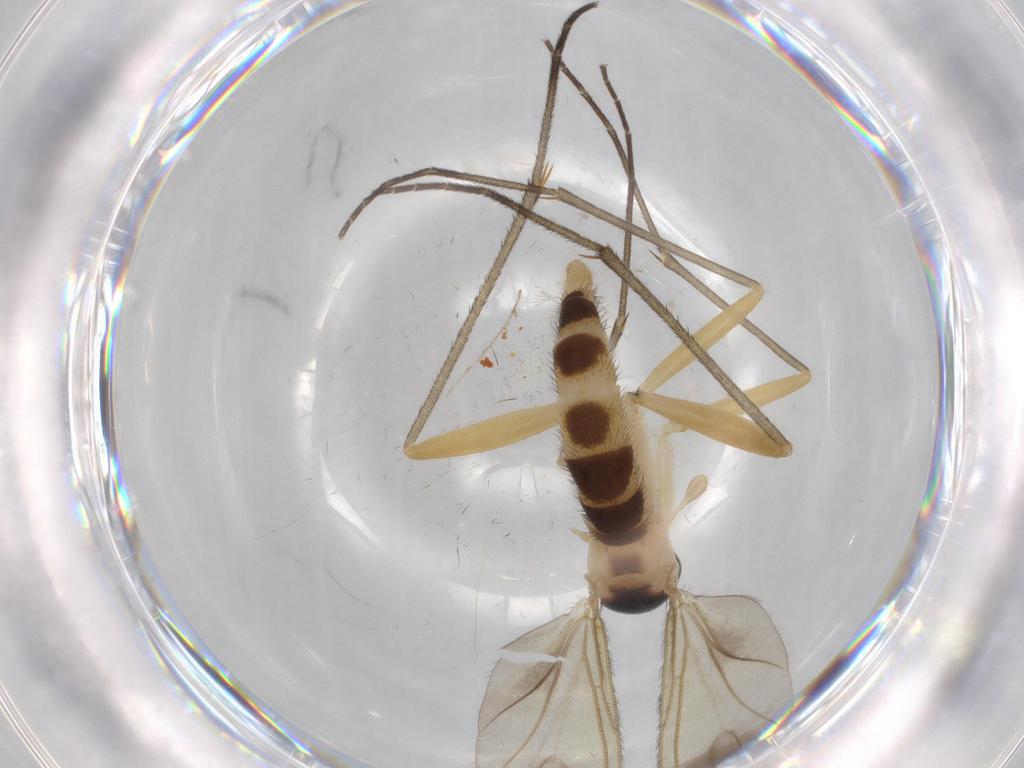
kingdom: Animalia
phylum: Arthropoda
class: Insecta
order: Diptera
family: Sciaridae
